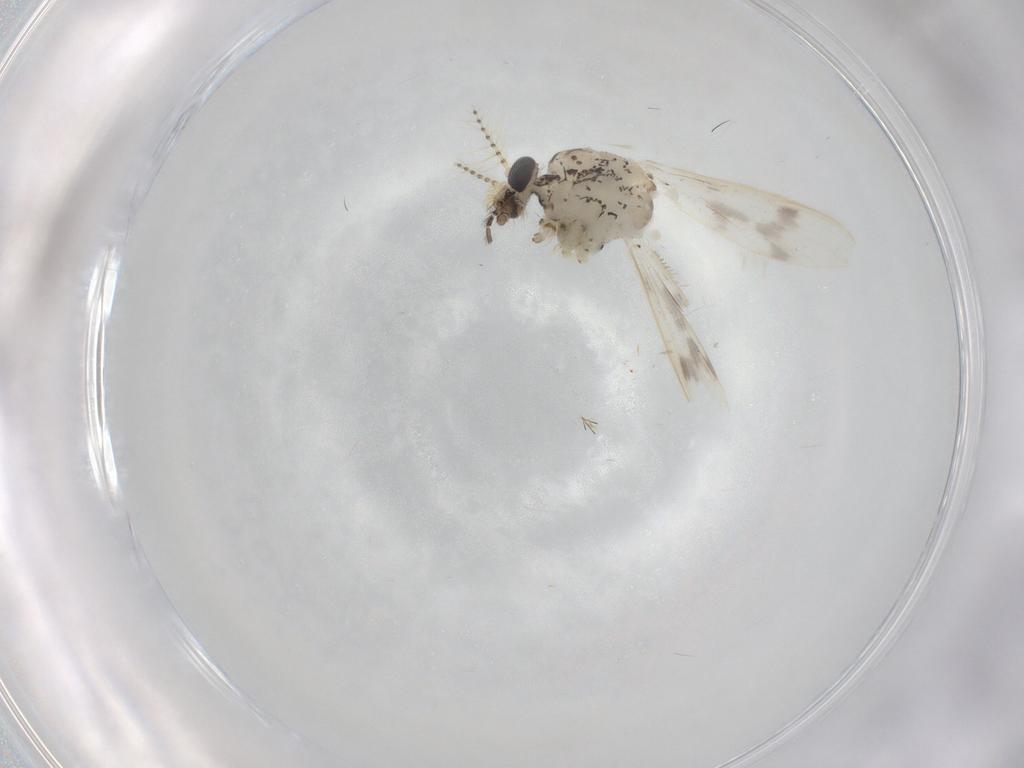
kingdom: Animalia
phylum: Arthropoda
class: Insecta
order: Diptera
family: Chaoboridae
